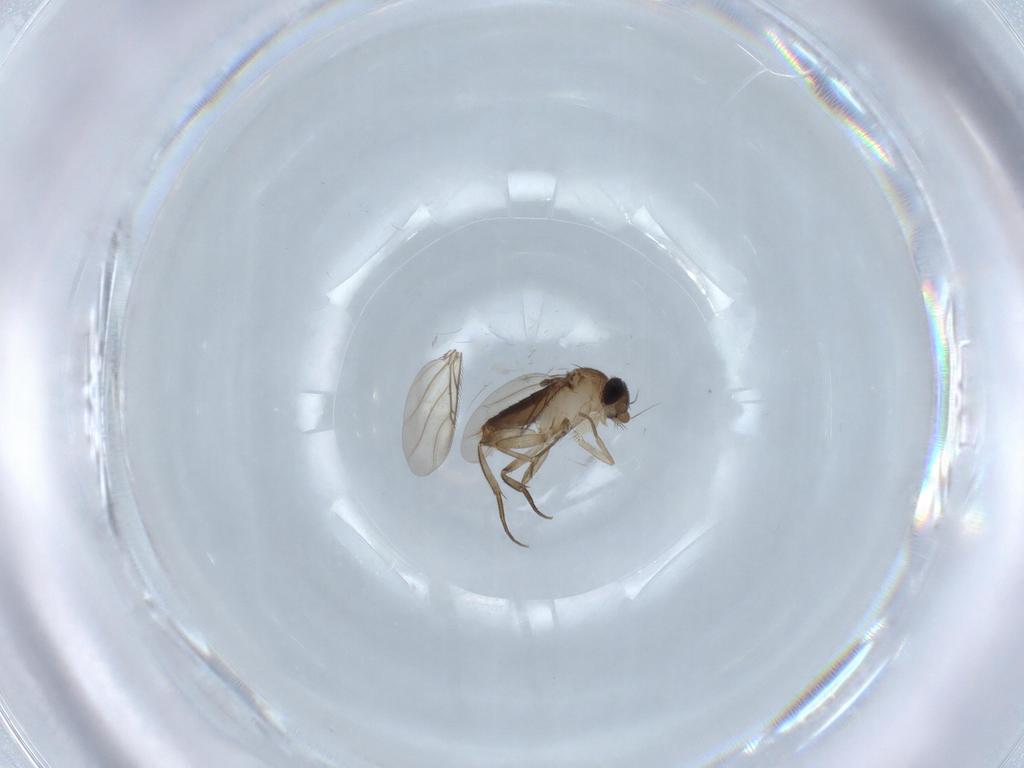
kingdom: Animalia
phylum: Arthropoda
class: Insecta
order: Diptera
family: Phoridae
